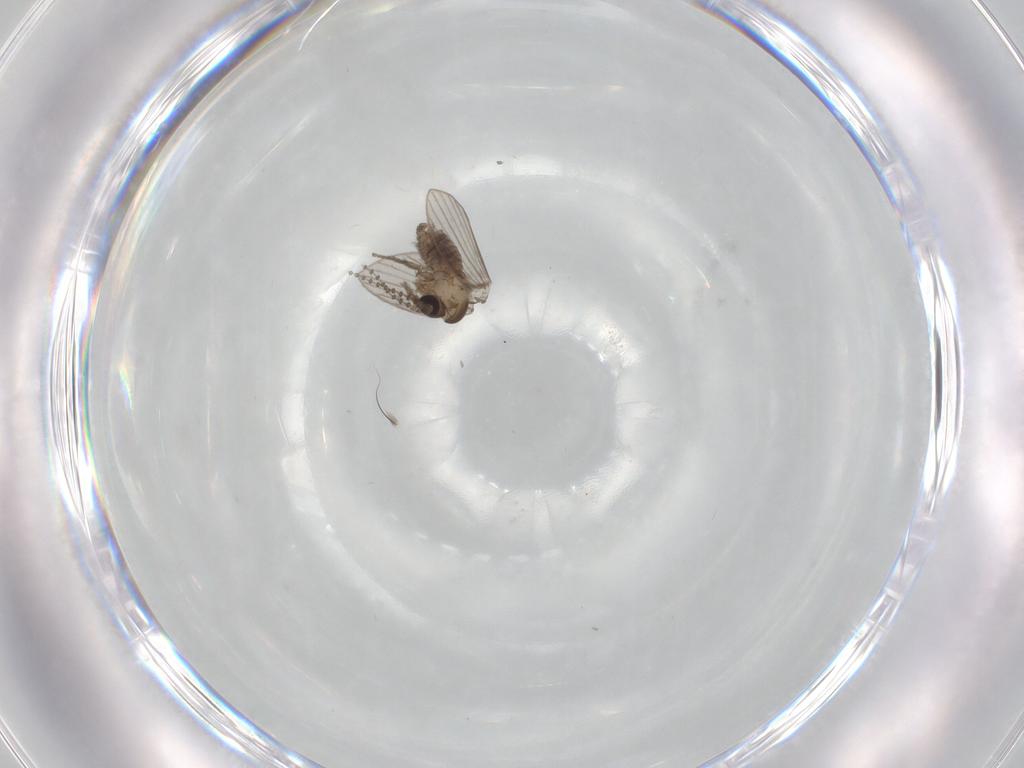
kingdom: Animalia
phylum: Arthropoda
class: Insecta
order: Diptera
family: Psychodidae
